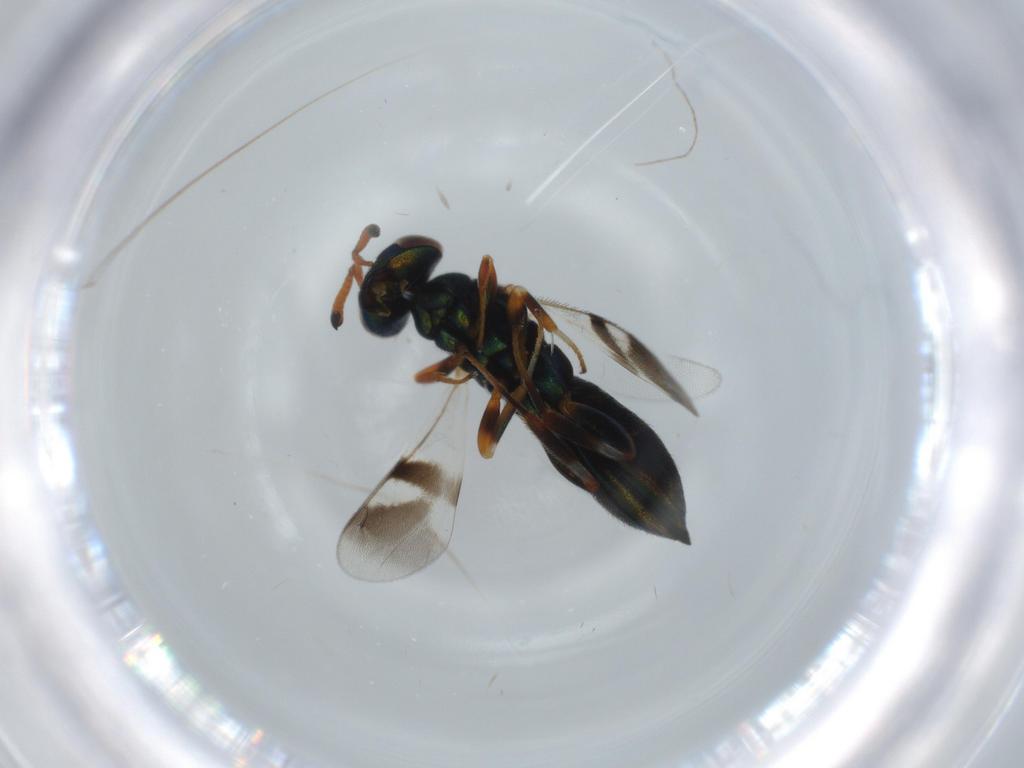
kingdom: Animalia
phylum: Arthropoda
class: Insecta
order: Hymenoptera
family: Cleonyminae
